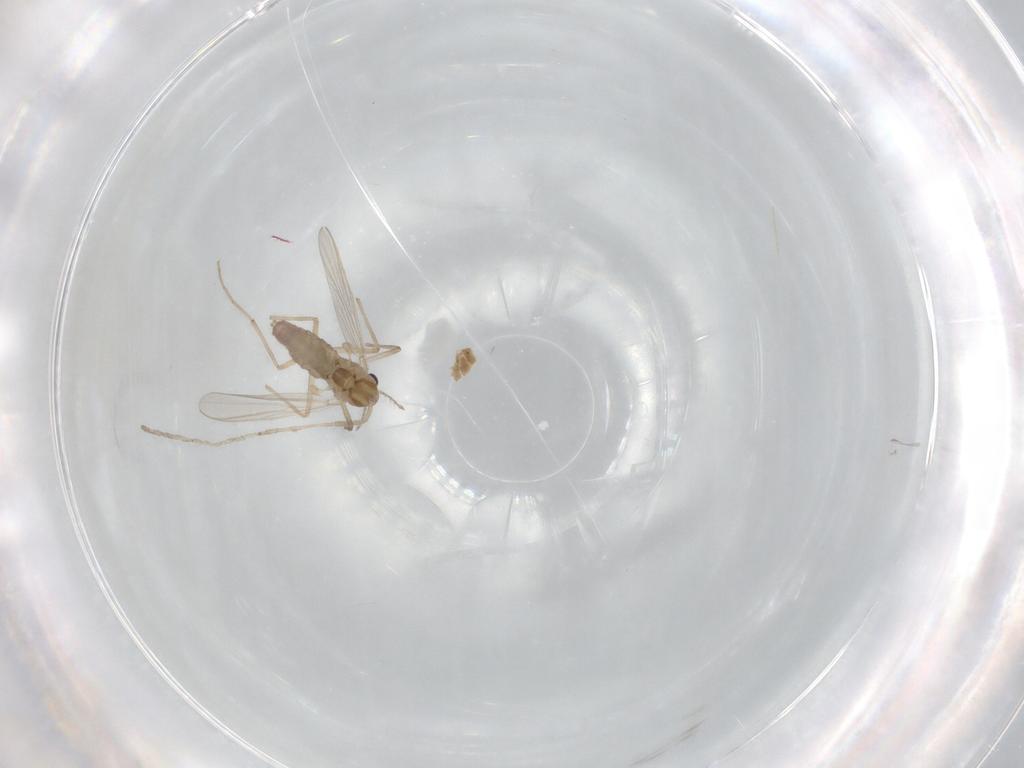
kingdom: Animalia
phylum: Arthropoda
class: Insecta
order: Diptera
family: Chironomidae
